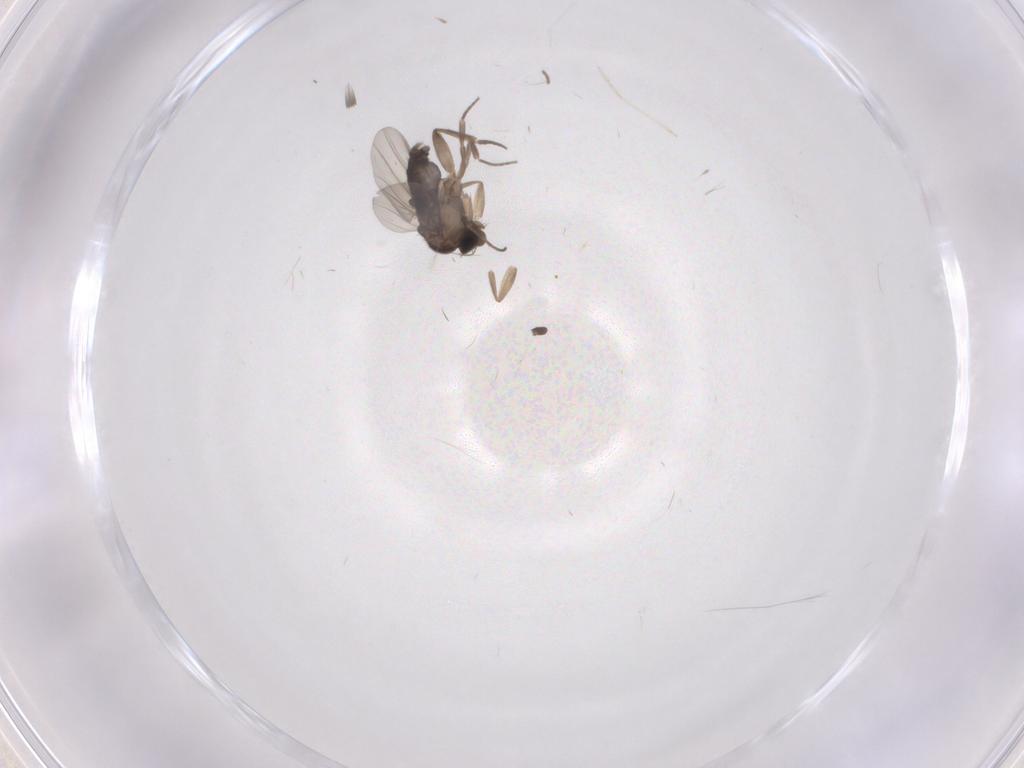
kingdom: Animalia
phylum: Arthropoda
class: Insecta
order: Diptera
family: Phoridae
